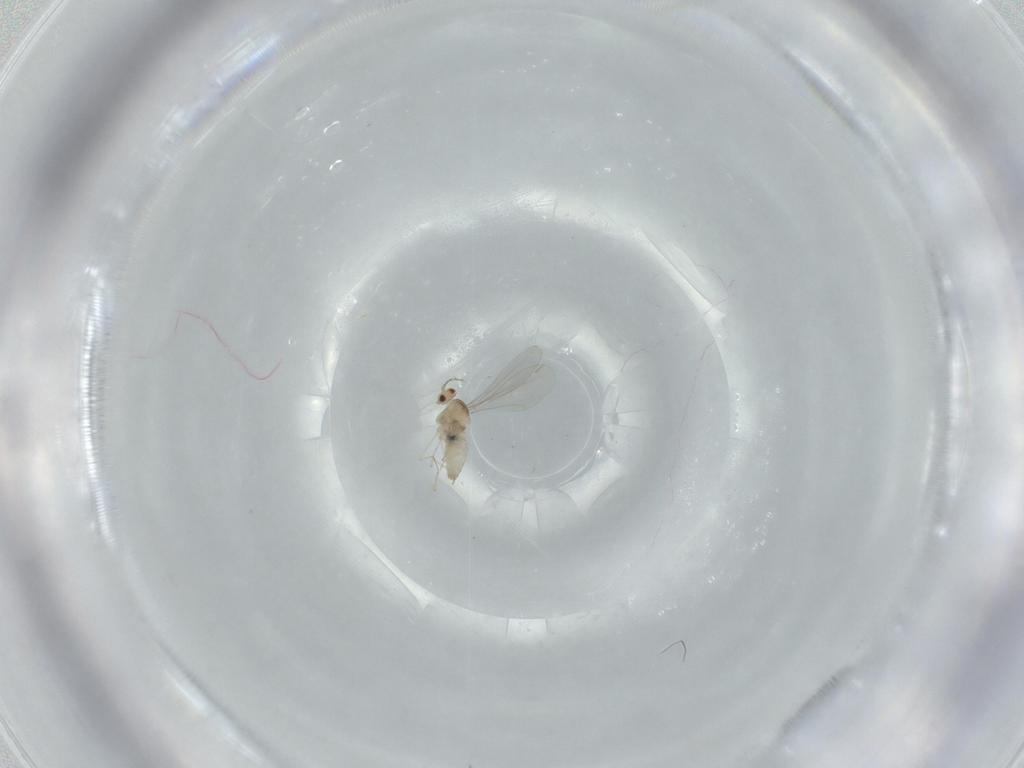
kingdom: Animalia
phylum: Arthropoda
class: Insecta
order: Diptera
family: Cecidomyiidae
